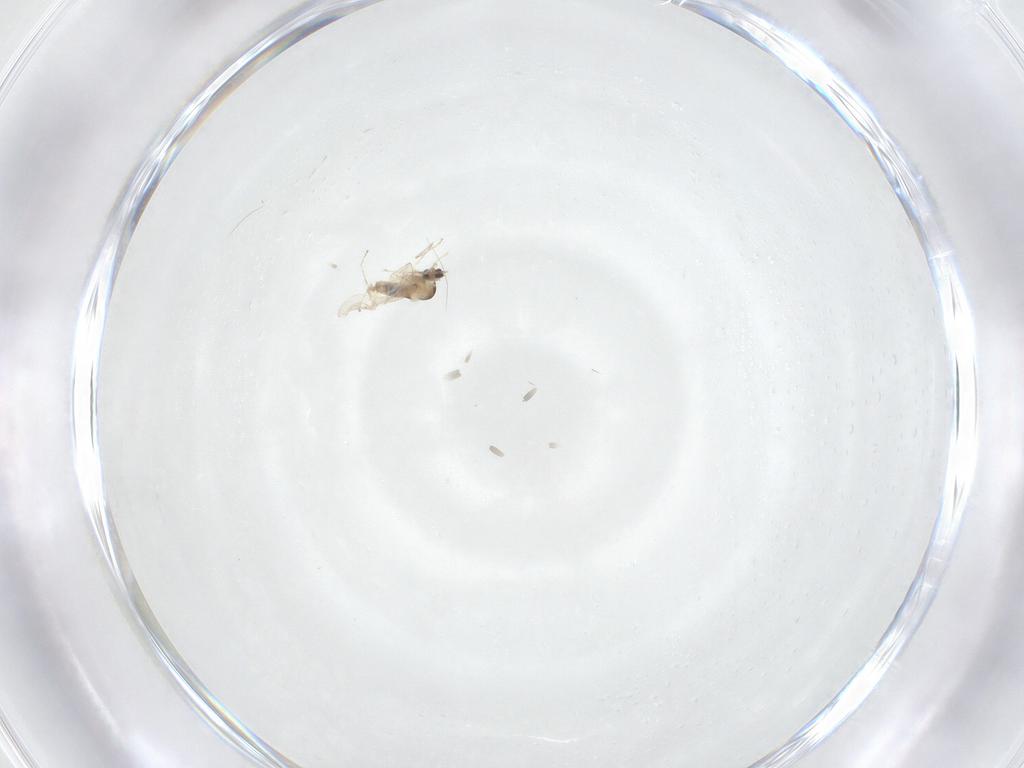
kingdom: Animalia
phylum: Arthropoda
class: Insecta
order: Diptera
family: Cecidomyiidae
